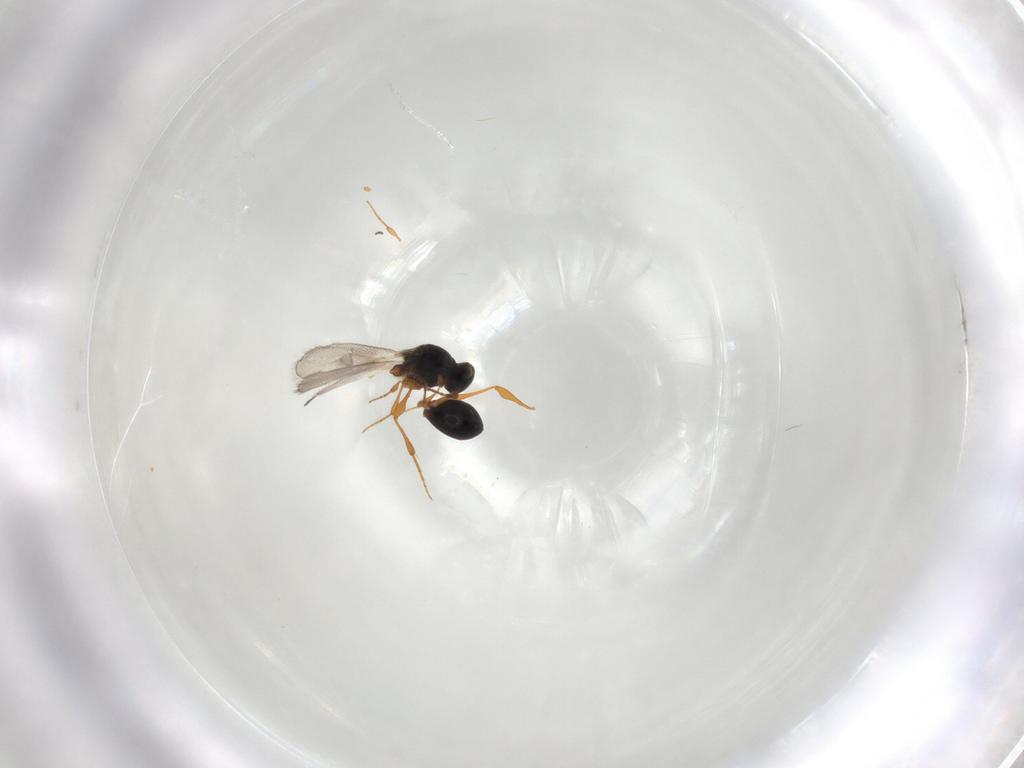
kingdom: Animalia
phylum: Arthropoda
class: Insecta
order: Hymenoptera
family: Platygastridae
